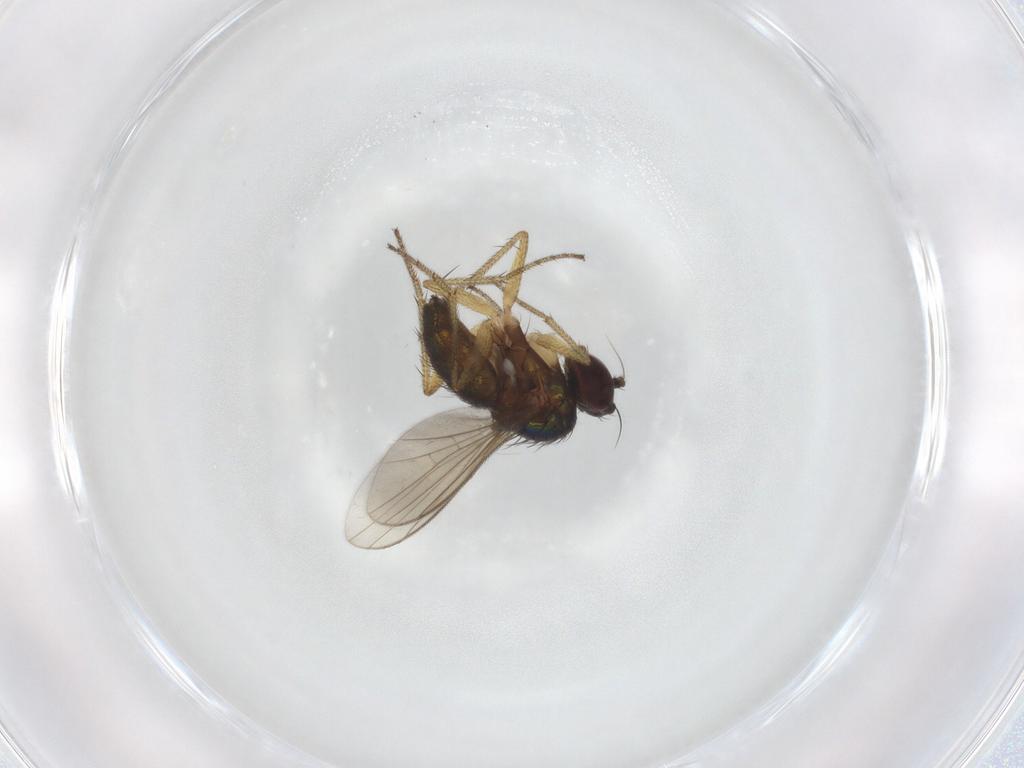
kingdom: Animalia
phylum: Arthropoda
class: Insecta
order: Diptera
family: Dolichopodidae
